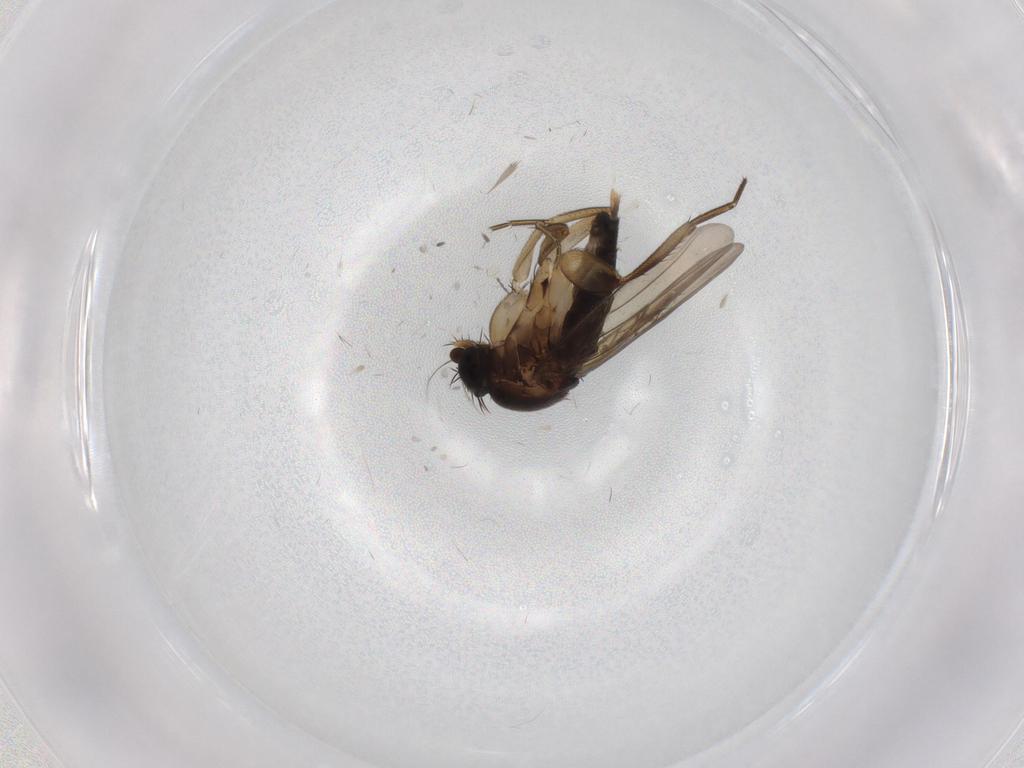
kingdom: Animalia
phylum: Arthropoda
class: Insecta
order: Diptera
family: Phoridae
